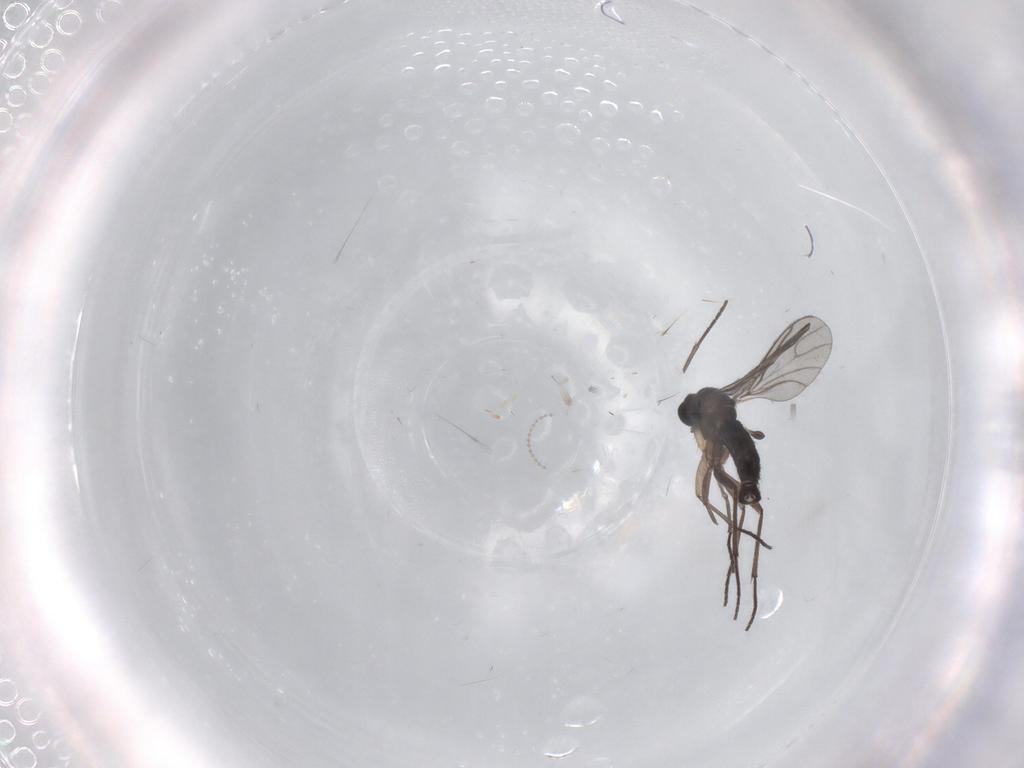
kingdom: Animalia
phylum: Arthropoda
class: Insecta
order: Diptera
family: Sciaridae
